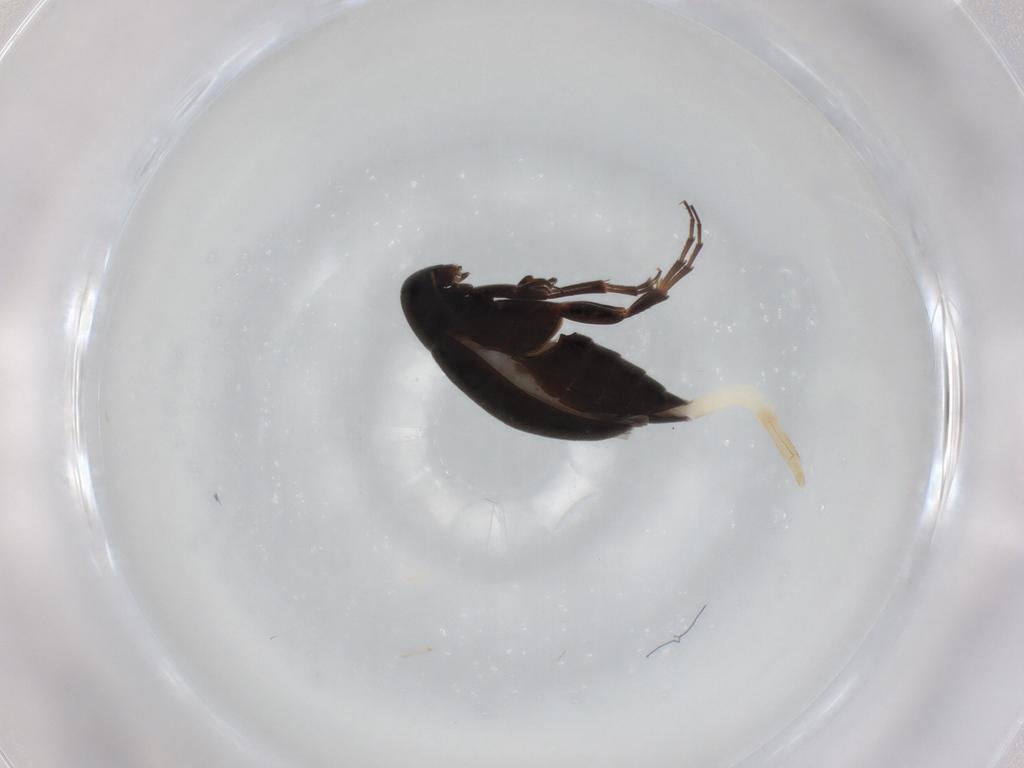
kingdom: Animalia
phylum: Arthropoda
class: Insecta
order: Coleoptera
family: Scraptiidae
